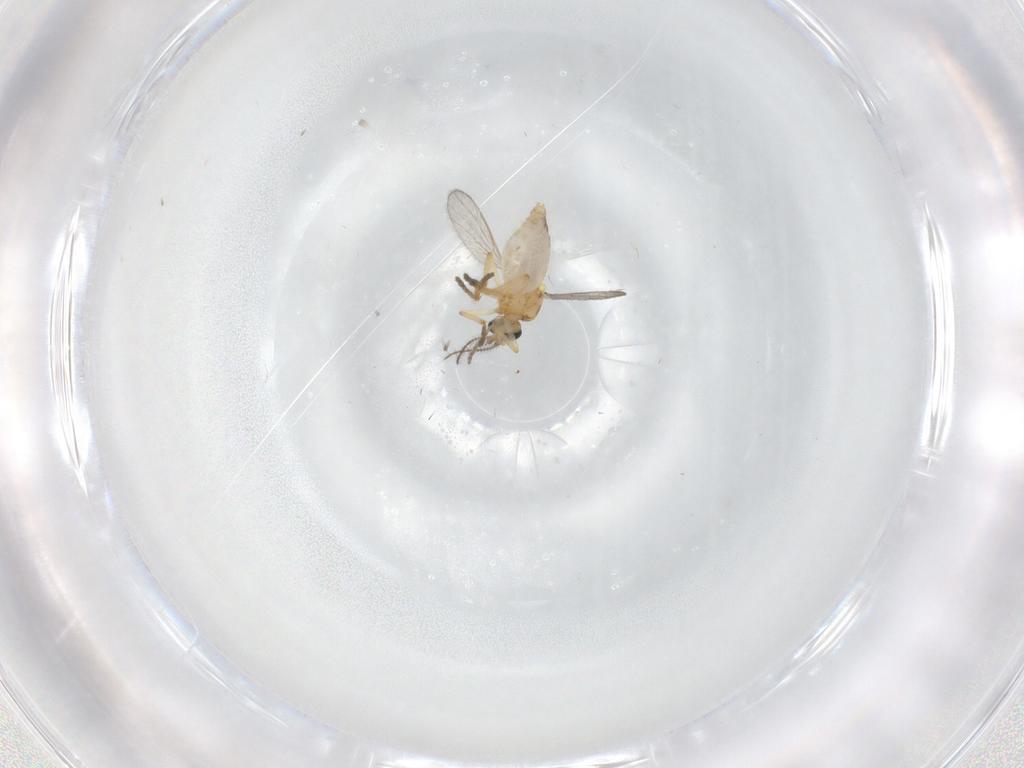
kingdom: Animalia
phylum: Arthropoda
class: Insecta
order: Diptera
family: Ceratopogonidae
